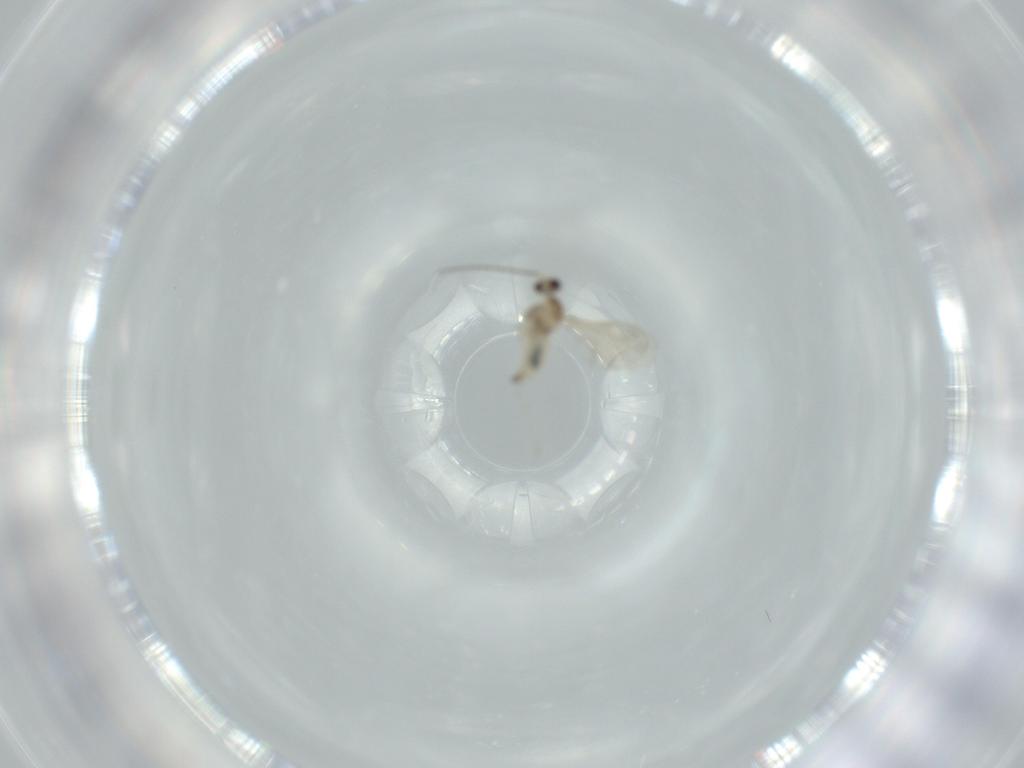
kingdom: Animalia
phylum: Arthropoda
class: Insecta
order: Diptera
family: Cecidomyiidae
